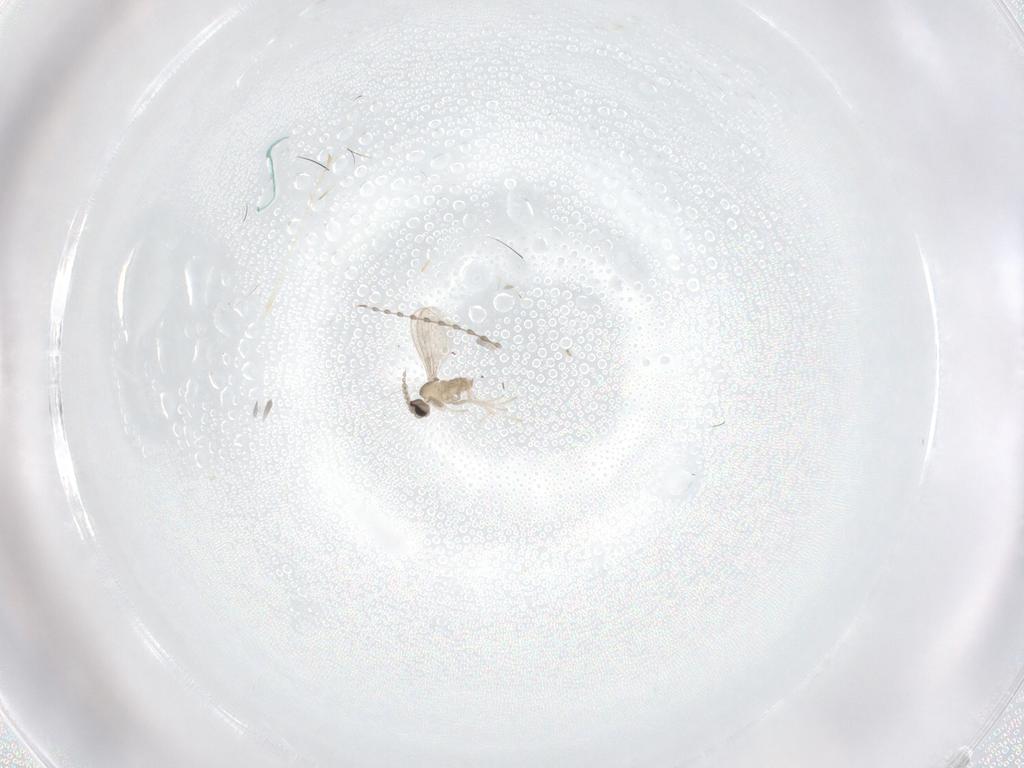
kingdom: Animalia
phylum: Arthropoda
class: Insecta
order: Diptera
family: Cecidomyiidae
